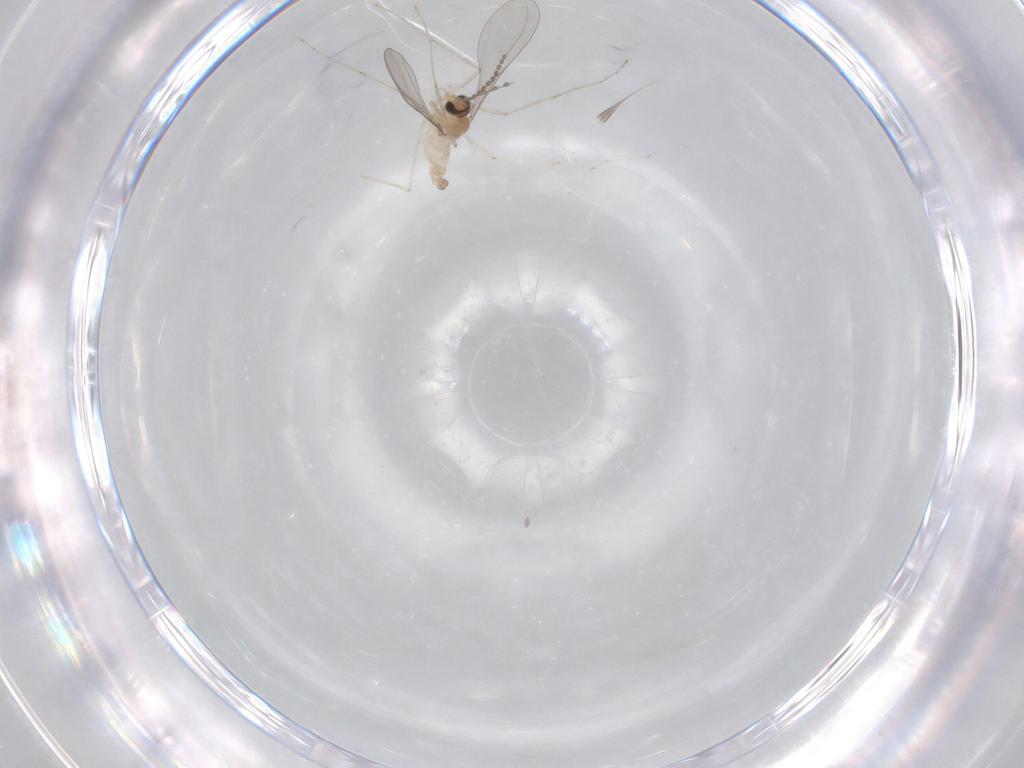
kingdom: Animalia
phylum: Arthropoda
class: Insecta
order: Diptera
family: Cecidomyiidae
